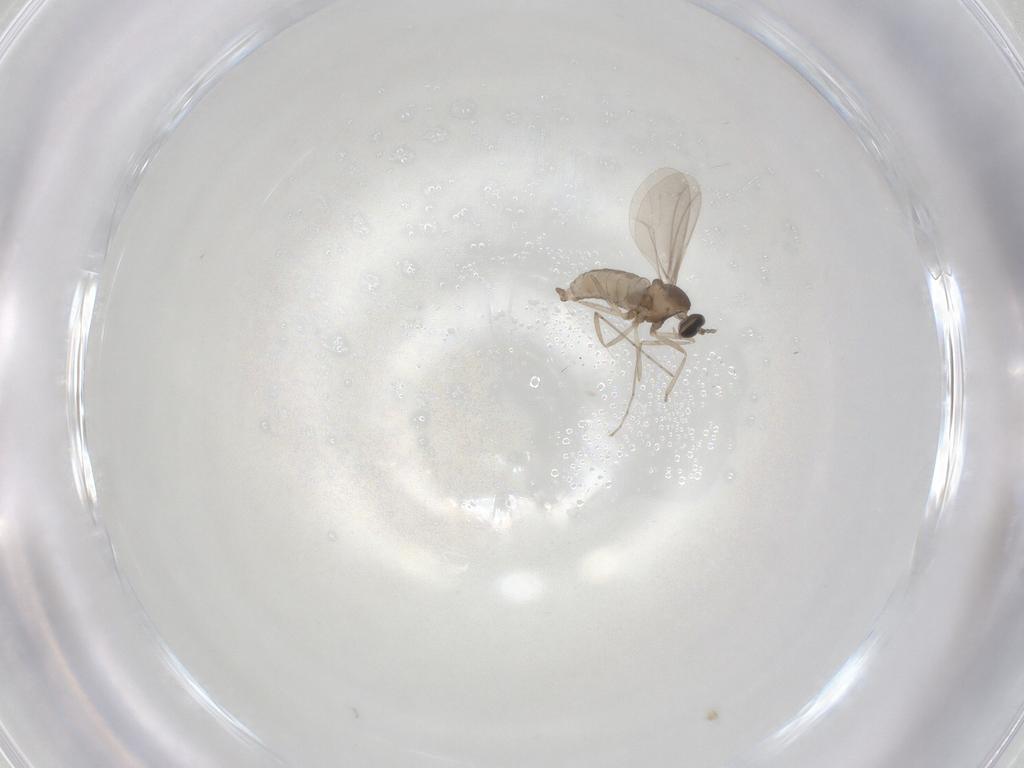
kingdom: Animalia
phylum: Arthropoda
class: Insecta
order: Diptera
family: Cecidomyiidae
